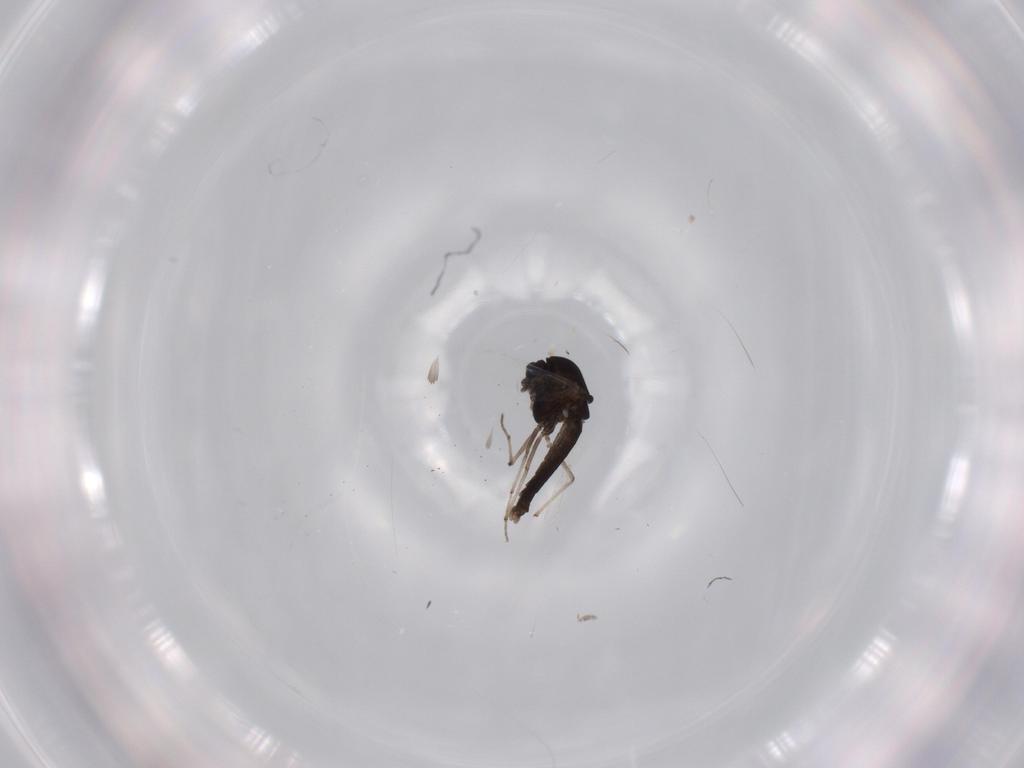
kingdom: Animalia
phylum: Arthropoda
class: Insecta
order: Diptera
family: Chironomidae
